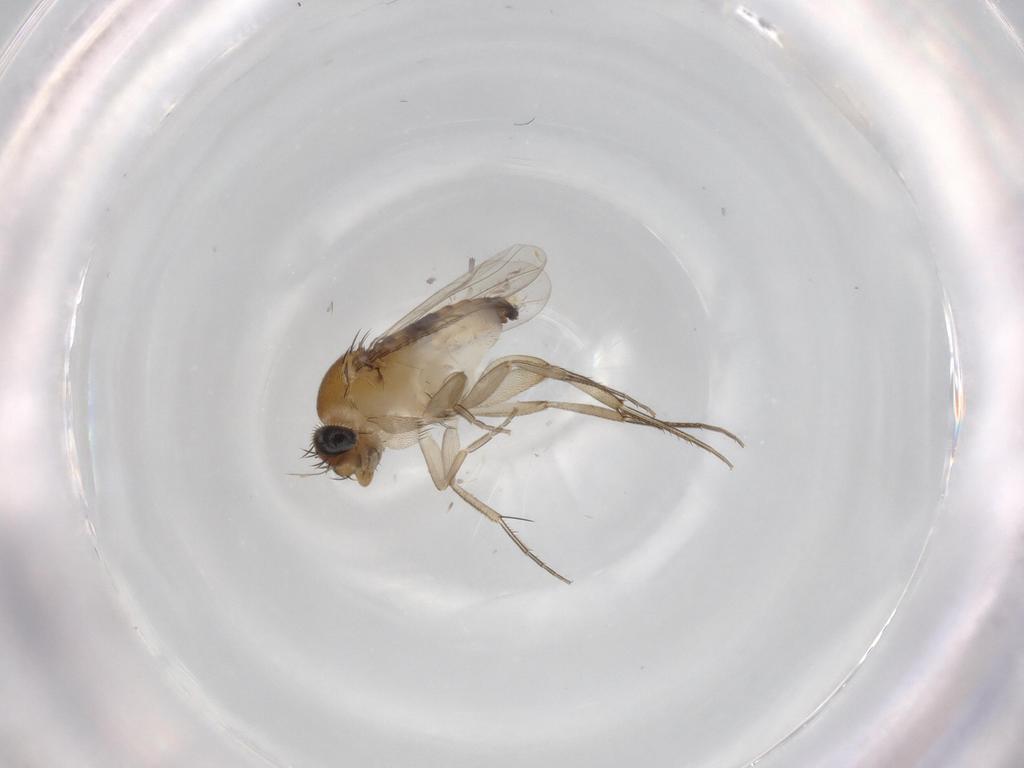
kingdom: Animalia
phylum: Arthropoda
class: Insecta
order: Diptera
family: Phoridae
